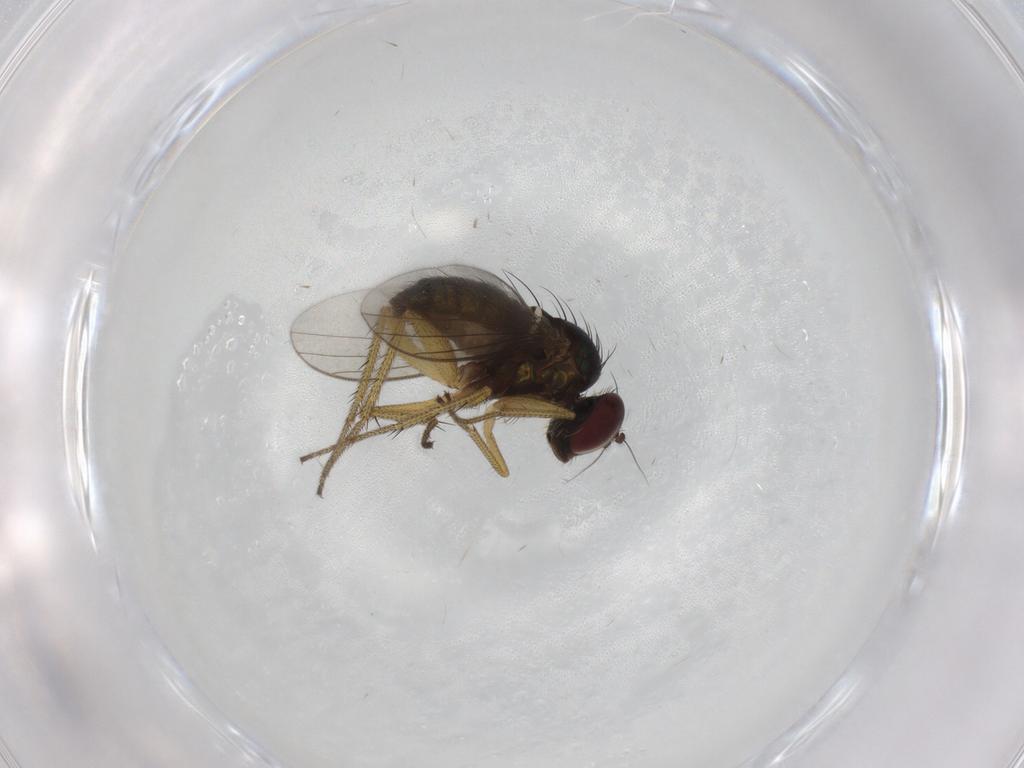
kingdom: Animalia
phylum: Arthropoda
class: Insecta
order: Diptera
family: Dolichopodidae
